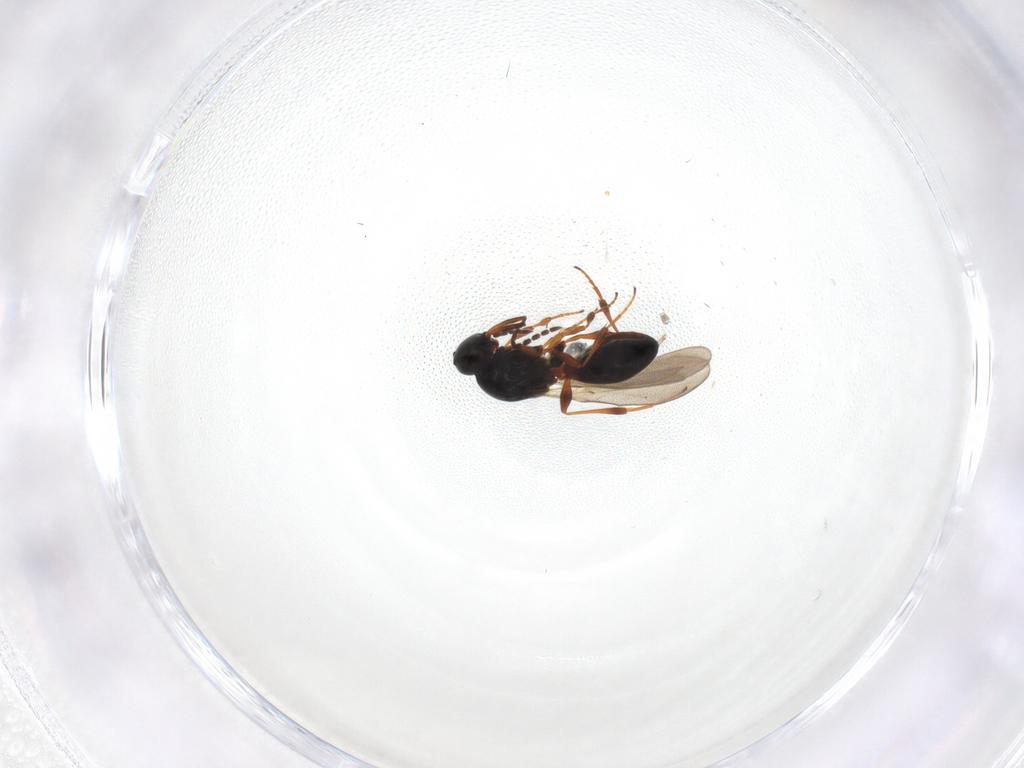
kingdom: Animalia
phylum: Arthropoda
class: Insecta
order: Hymenoptera
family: Platygastridae
